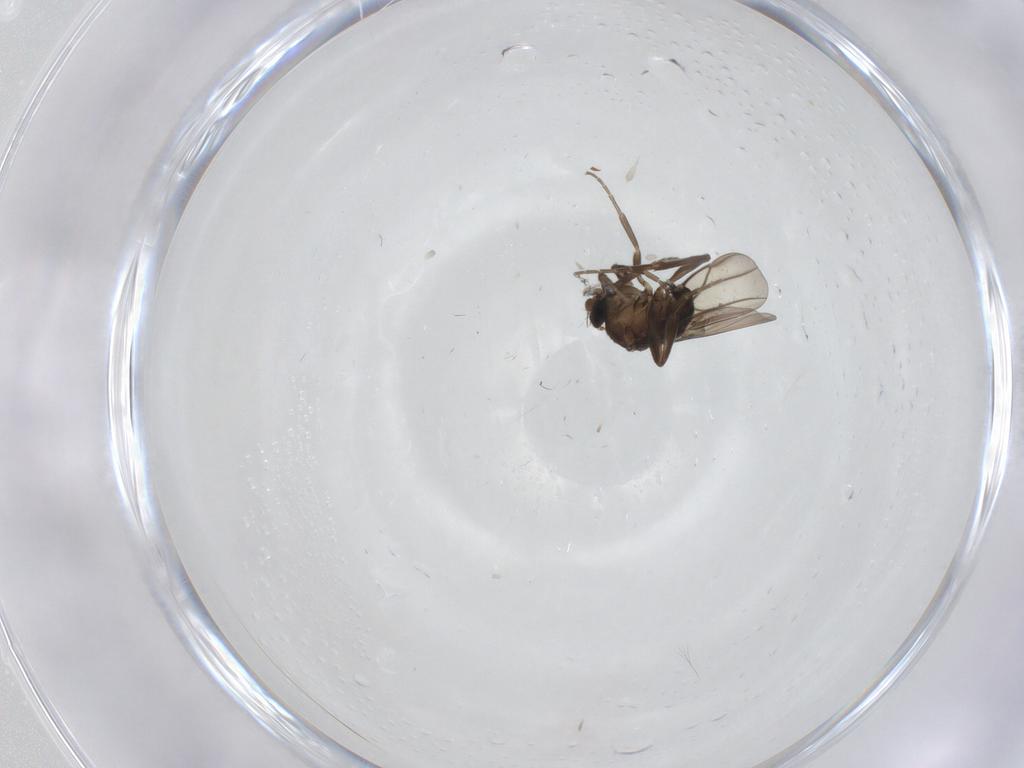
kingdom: Animalia
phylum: Arthropoda
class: Insecta
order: Diptera
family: Phoridae
